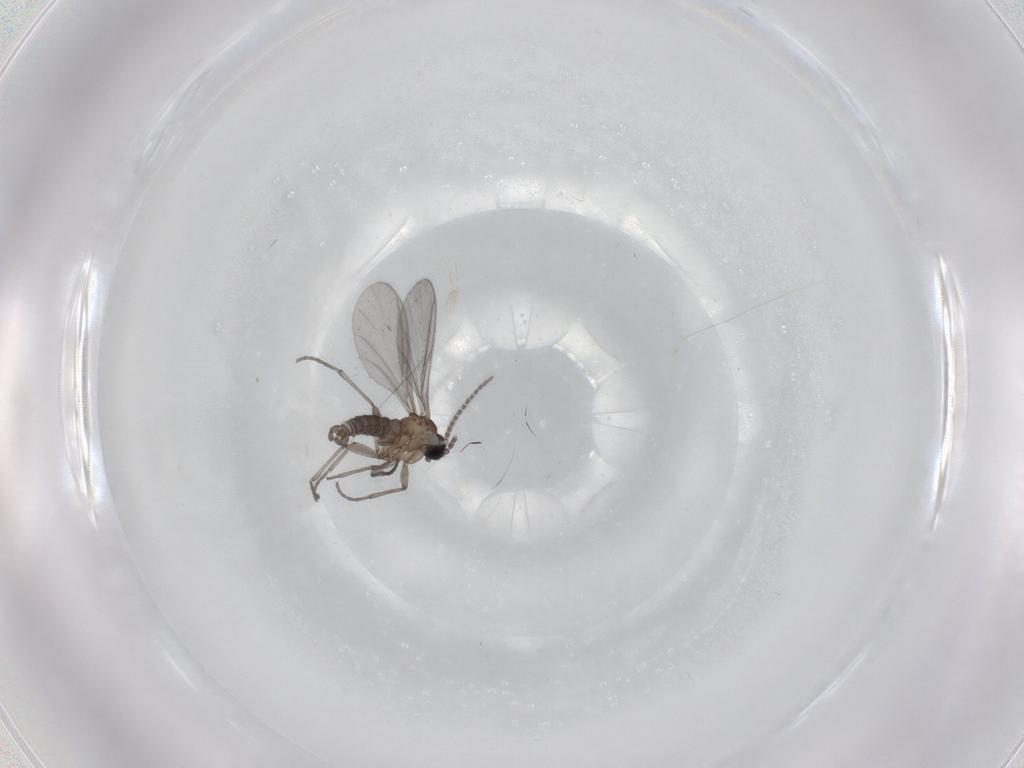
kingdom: Animalia
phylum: Arthropoda
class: Insecta
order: Diptera
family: Sciaridae
